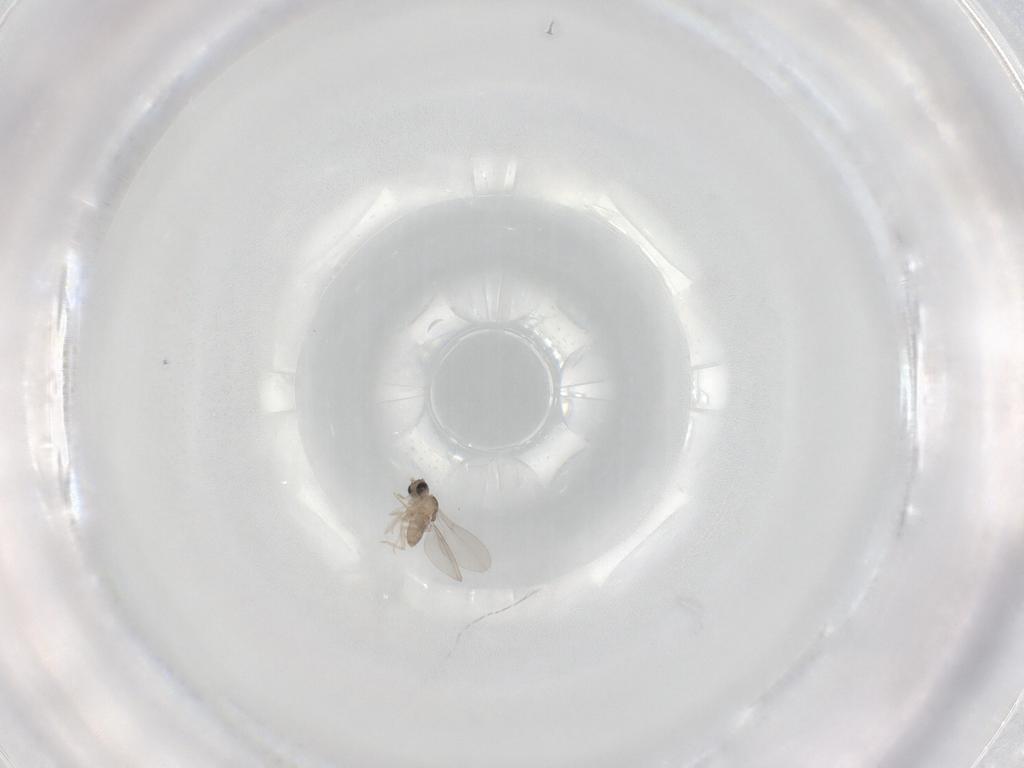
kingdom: Animalia
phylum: Arthropoda
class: Insecta
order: Diptera
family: Cecidomyiidae
